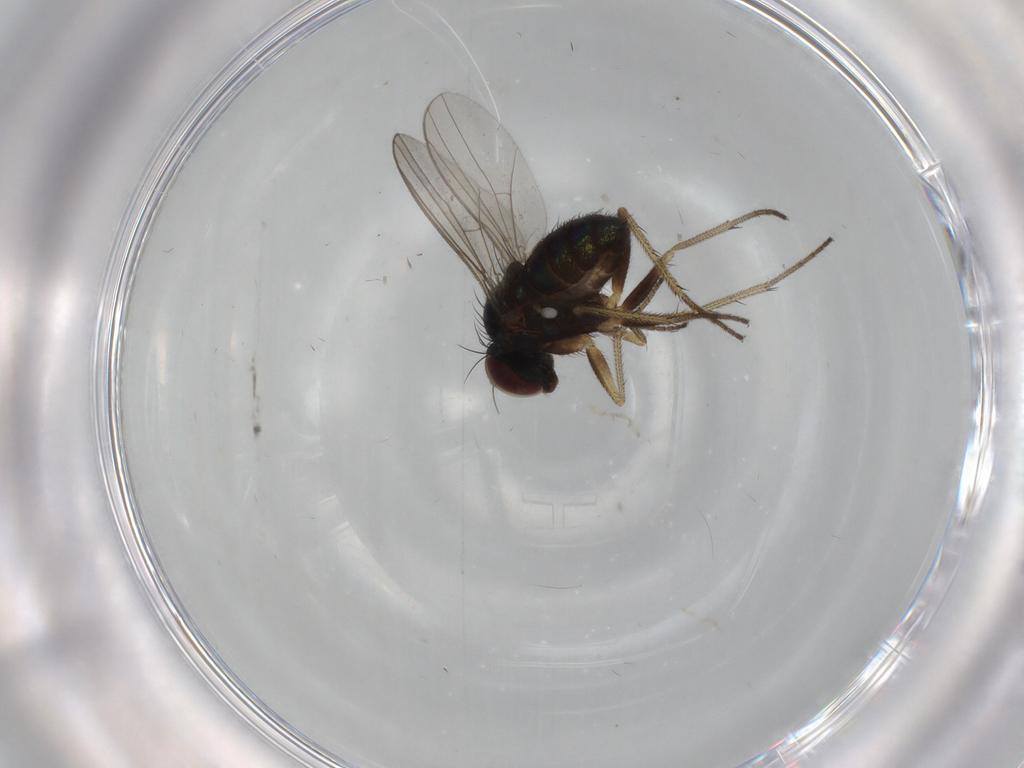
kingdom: Animalia
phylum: Arthropoda
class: Insecta
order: Diptera
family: Dolichopodidae
